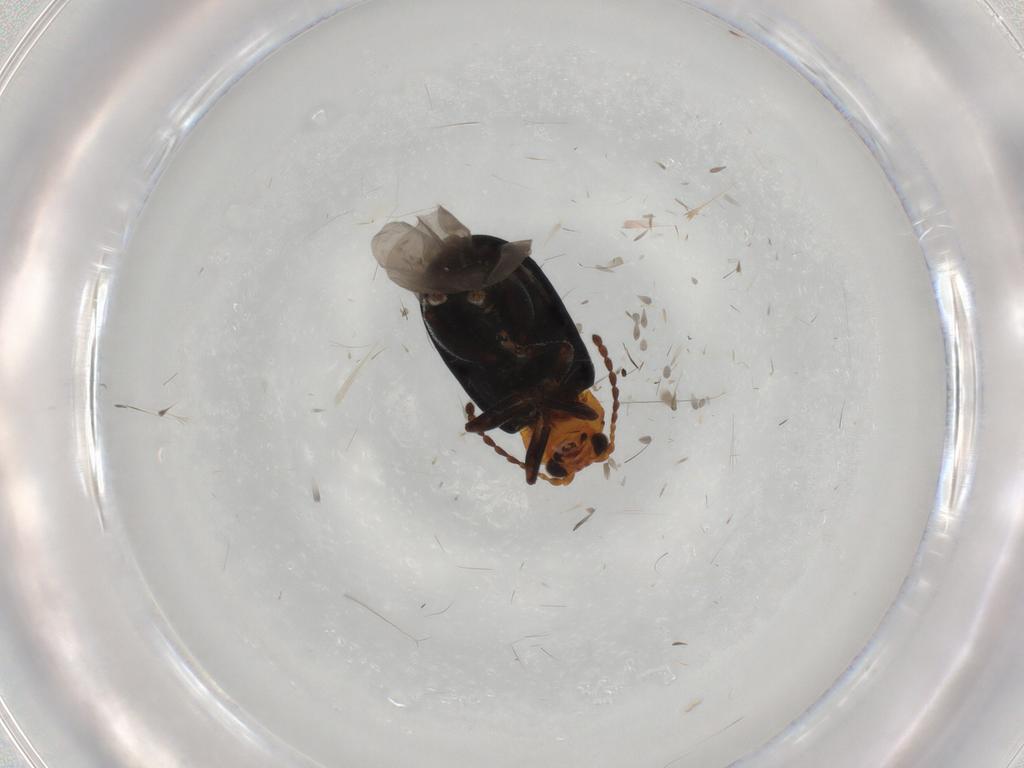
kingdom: Animalia
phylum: Arthropoda
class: Insecta
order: Coleoptera
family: Chrysomelidae
